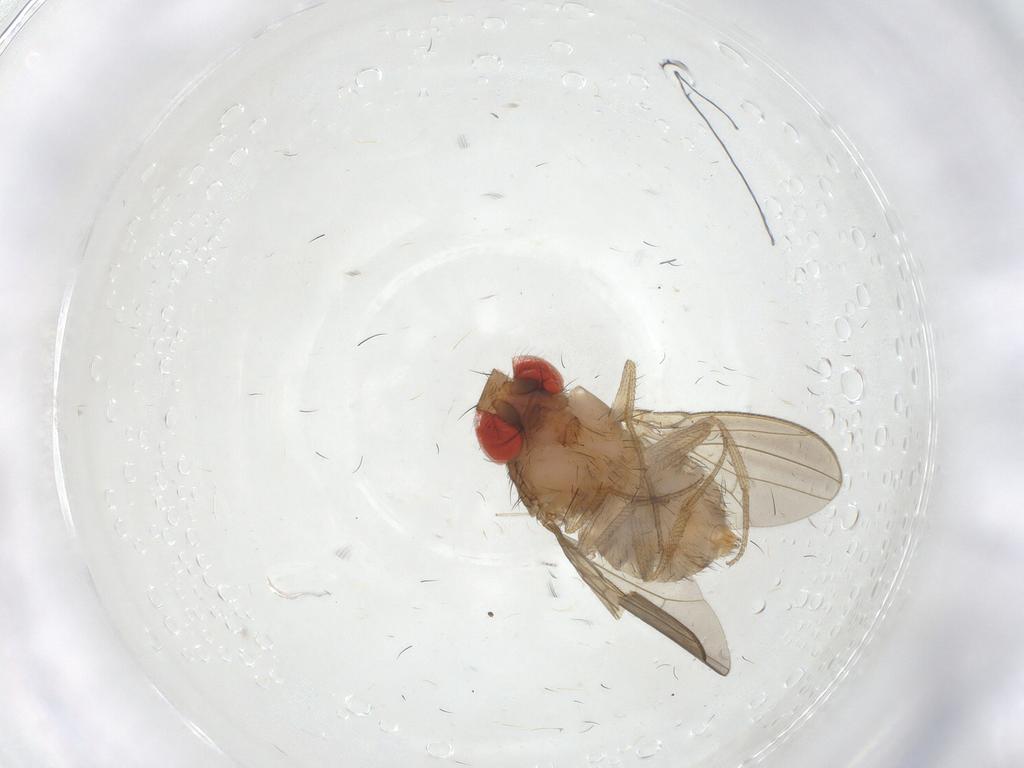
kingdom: Animalia
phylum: Arthropoda
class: Insecta
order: Diptera
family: Drosophilidae
